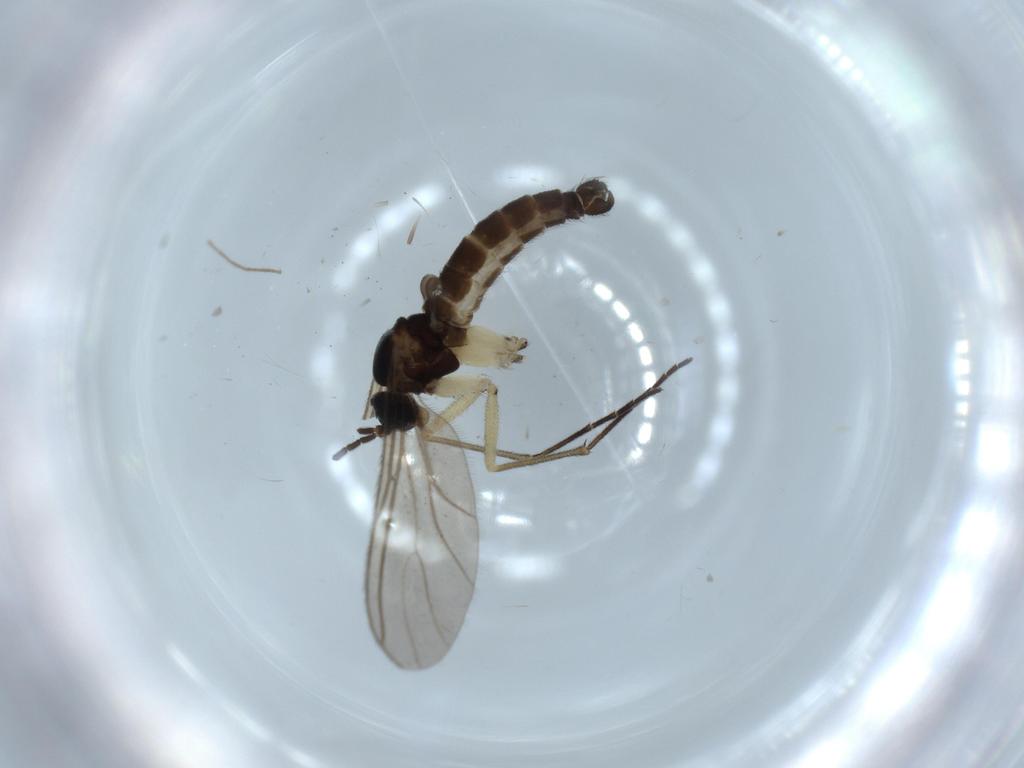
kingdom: Animalia
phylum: Arthropoda
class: Insecta
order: Diptera
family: Sciaridae
